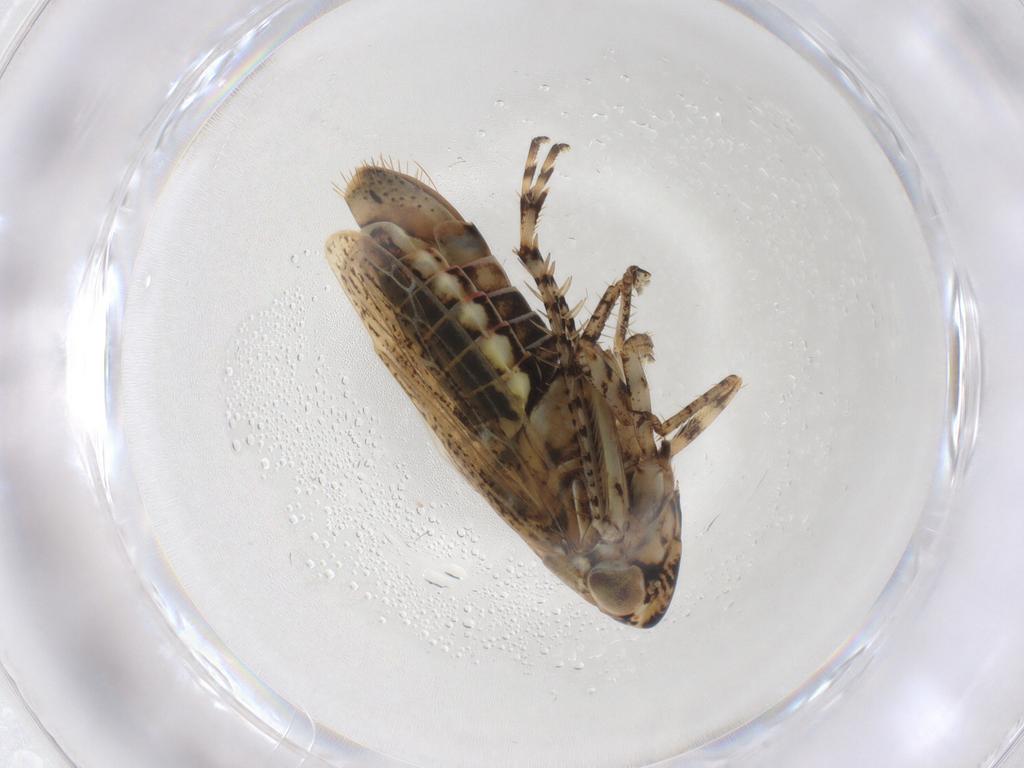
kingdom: Animalia
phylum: Arthropoda
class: Insecta
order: Hemiptera
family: Cicadellidae
